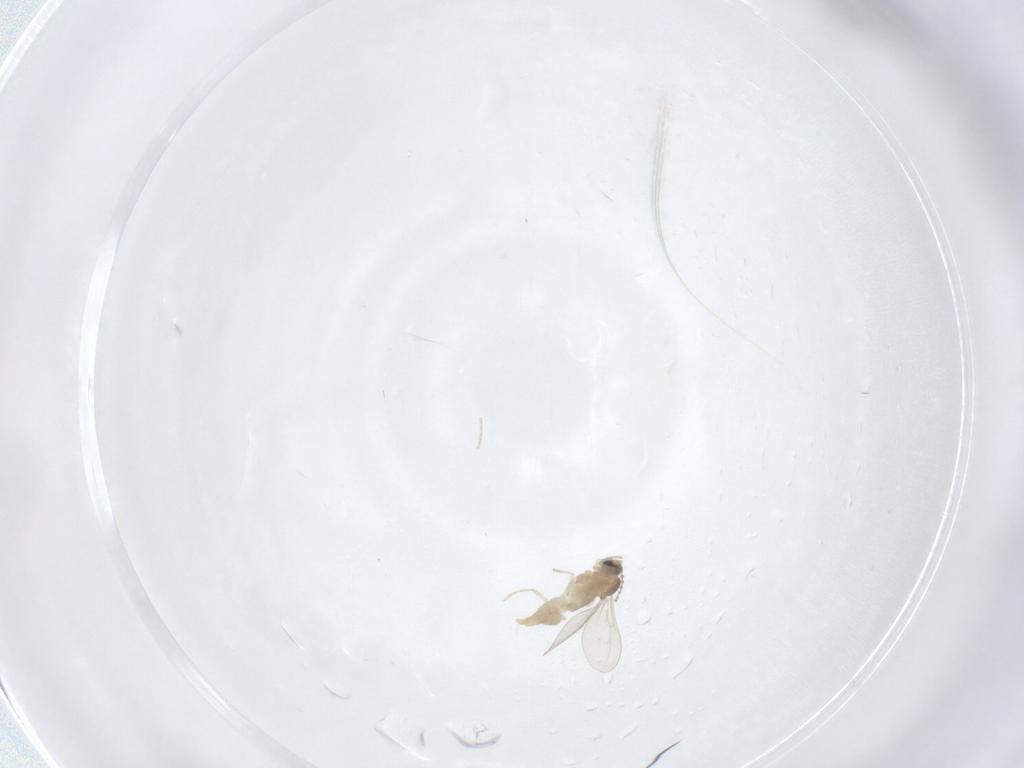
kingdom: Animalia
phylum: Arthropoda
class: Insecta
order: Diptera
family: Cecidomyiidae
